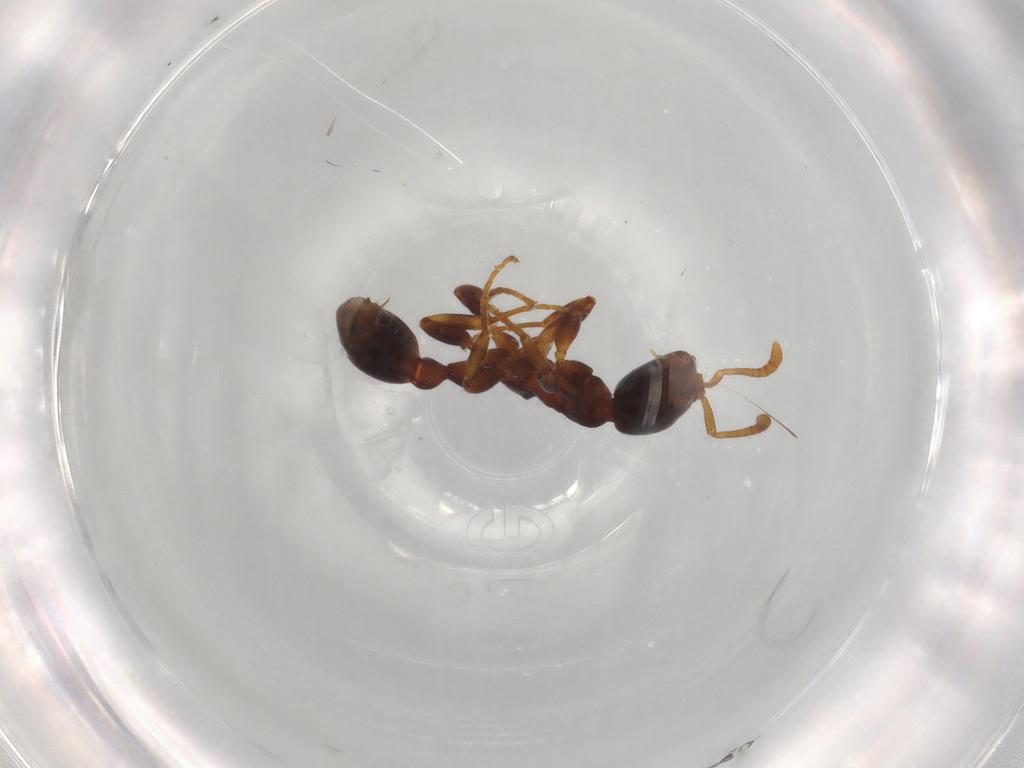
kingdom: Animalia
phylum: Arthropoda
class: Insecta
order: Hymenoptera
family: Formicidae
